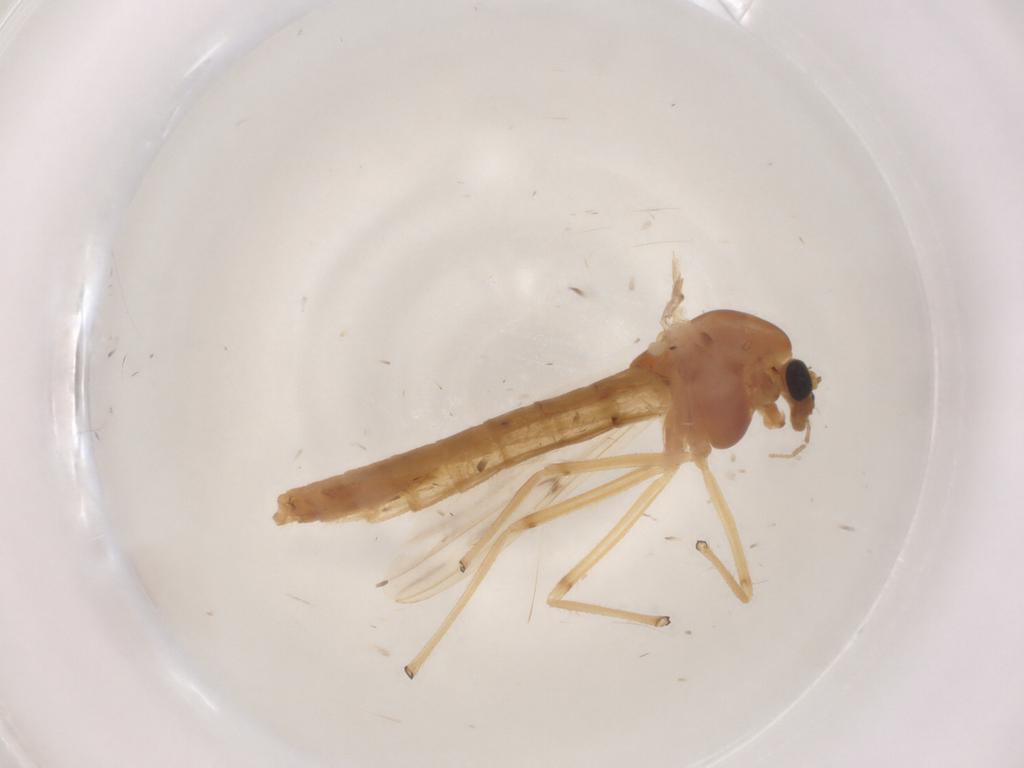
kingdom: Animalia
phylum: Arthropoda
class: Insecta
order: Diptera
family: Chironomidae
